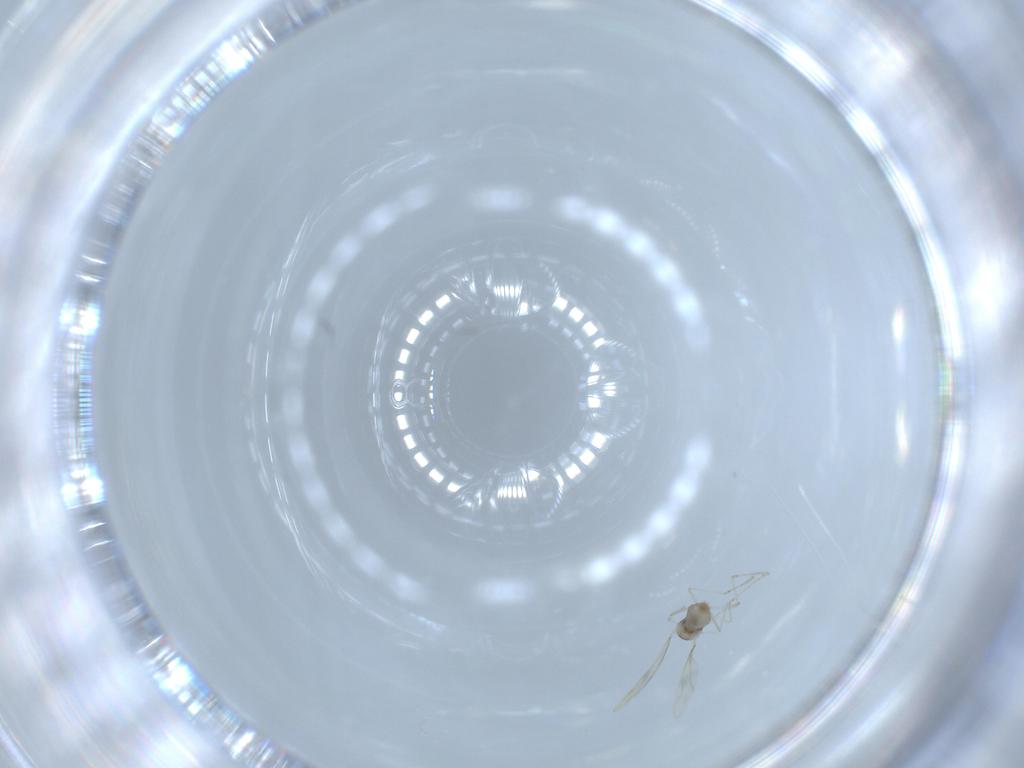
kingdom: Animalia
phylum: Arthropoda
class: Insecta
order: Diptera
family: Cecidomyiidae
